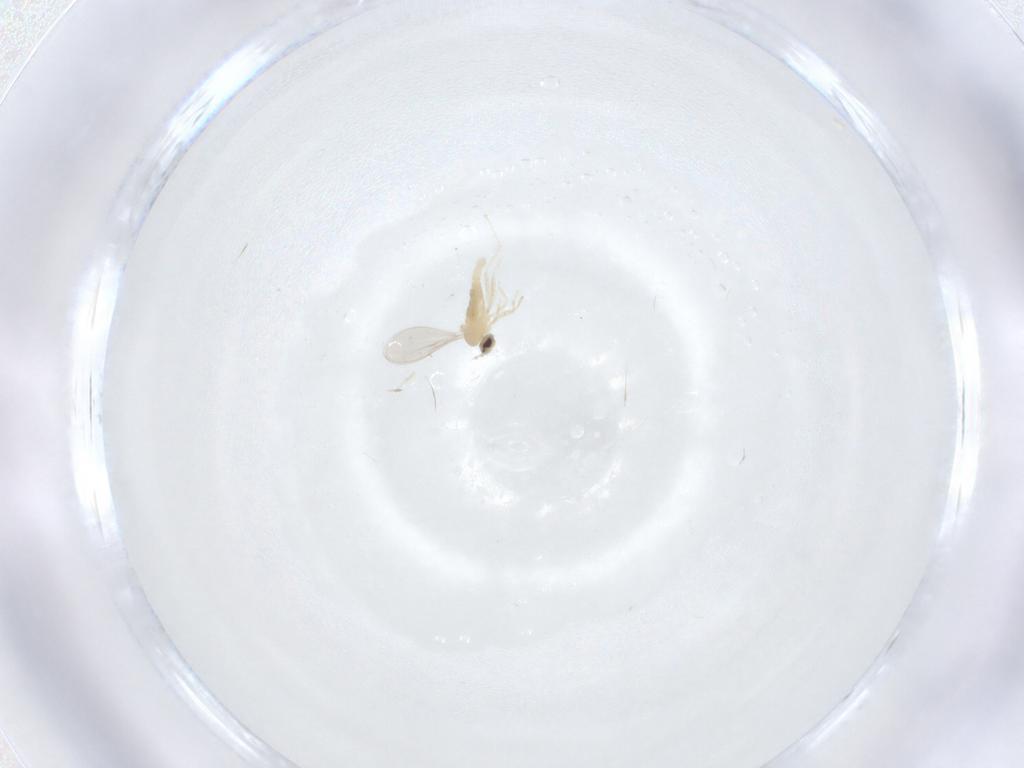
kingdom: Animalia
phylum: Arthropoda
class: Insecta
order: Diptera
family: Cecidomyiidae
